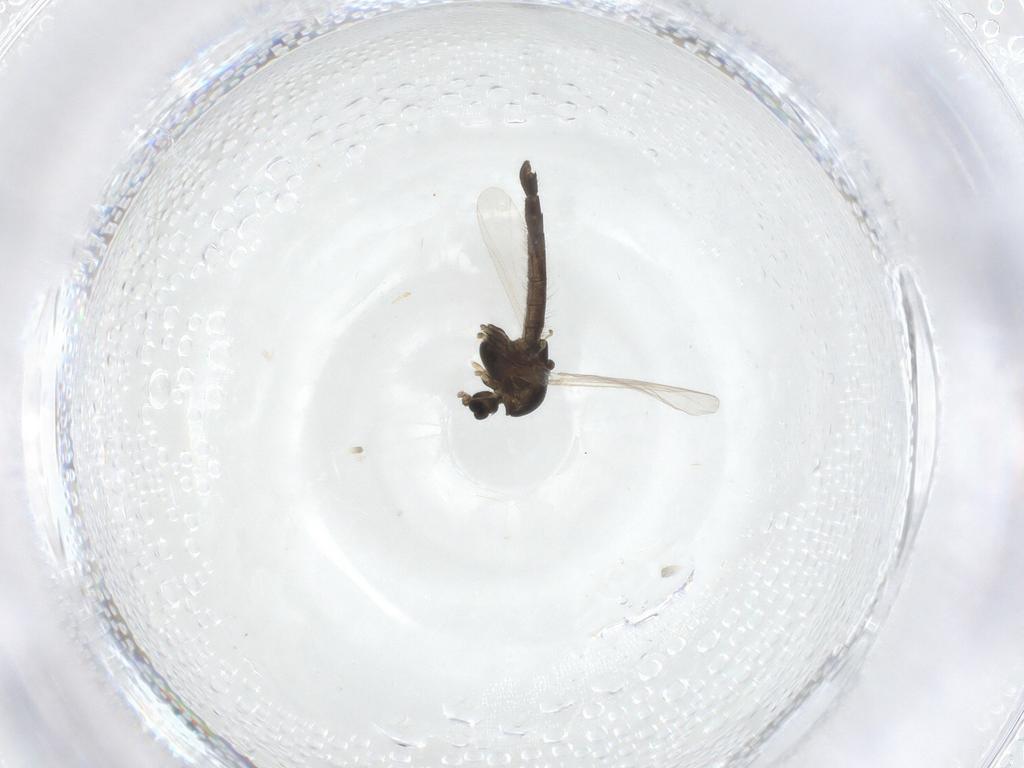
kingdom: Animalia
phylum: Arthropoda
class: Insecta
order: Diptera
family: Chironomidae
